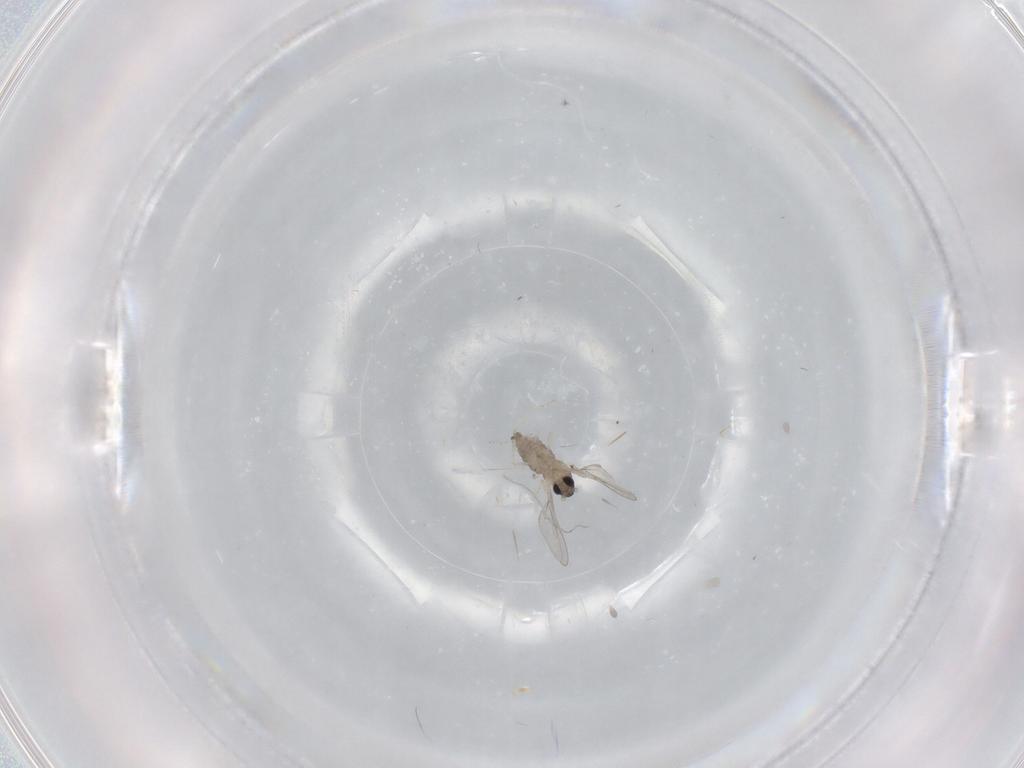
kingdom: Animalia
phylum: Arthropoda
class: Insecta
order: Diptera
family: Cecidomyiidae
